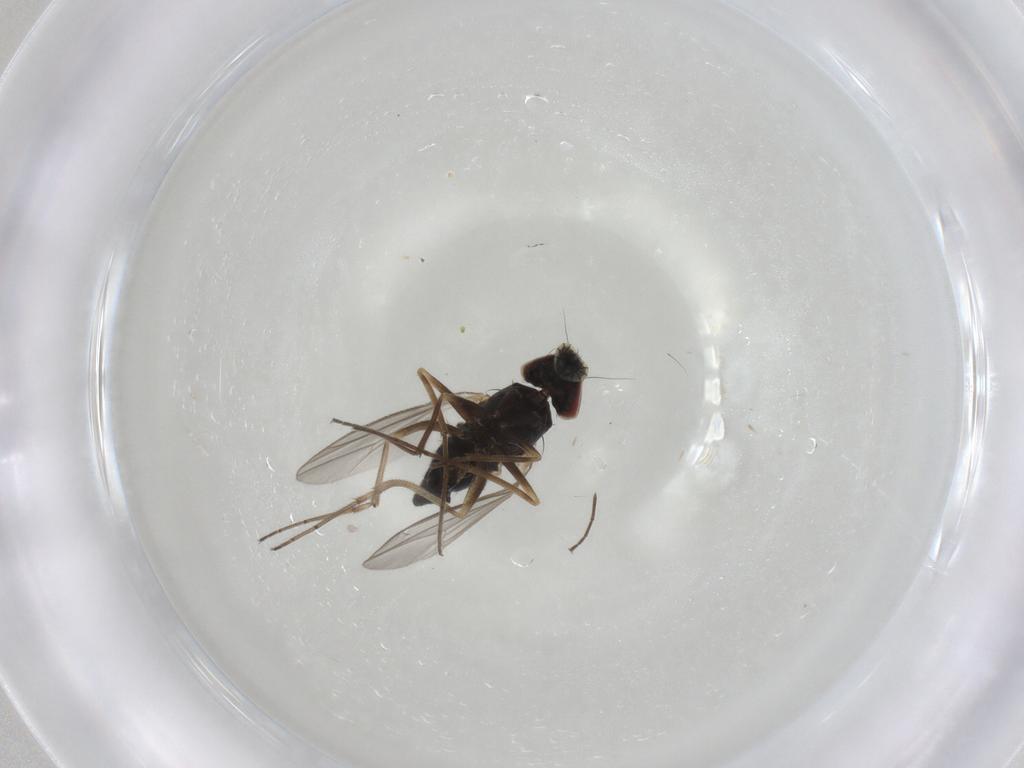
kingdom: Animalia
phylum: Arthropoda
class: Insecta
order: Diptera
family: Dolichopodidae
